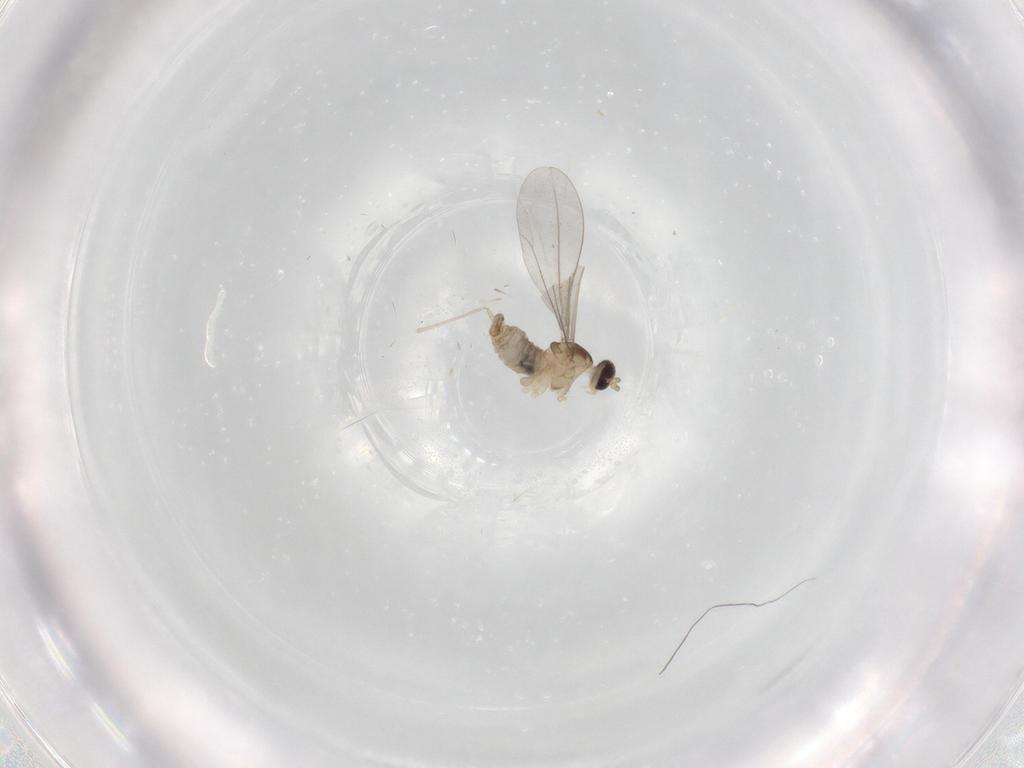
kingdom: Animalia
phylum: Arthropoda
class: Insecta
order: Diptera
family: Cecidomyiidae
